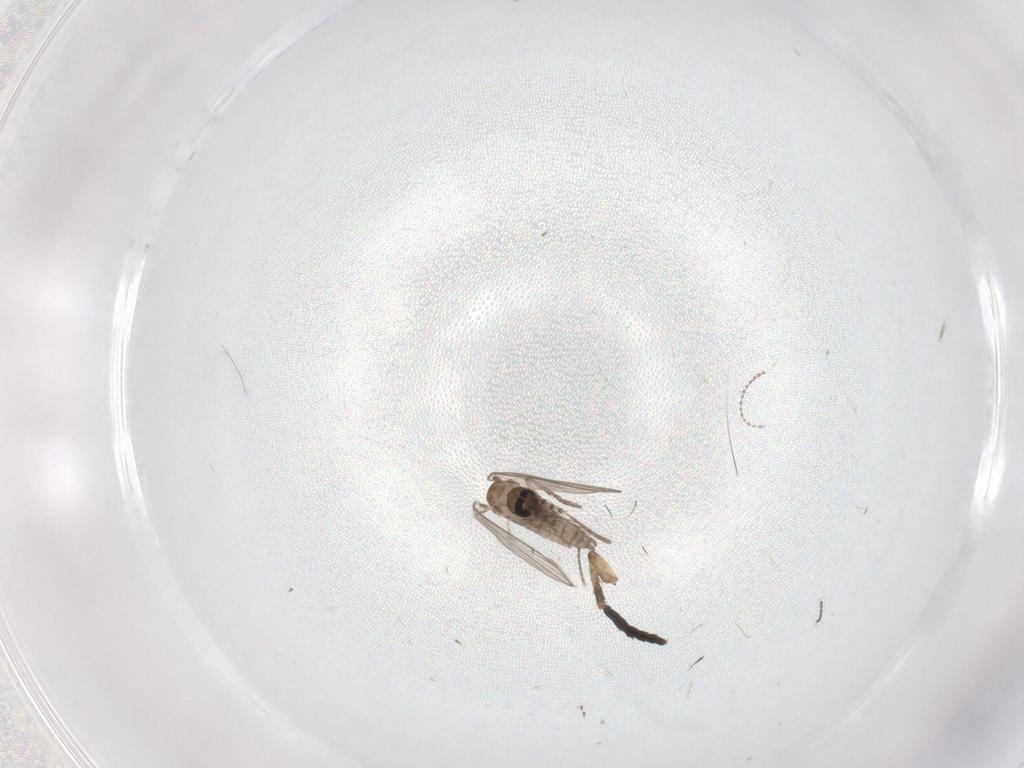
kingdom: Animalia
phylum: Arthropoda
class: Insecta
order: Diptera
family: Psychodidae
